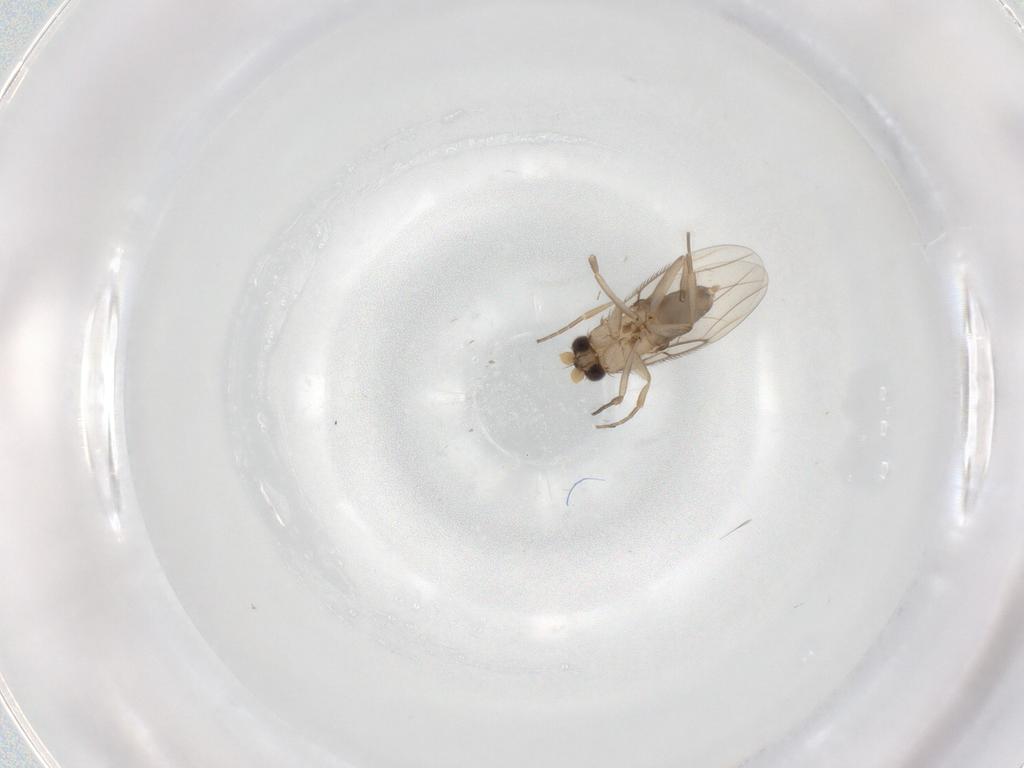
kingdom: Animalia
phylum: Arthropoda
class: Insecta
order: Diptera
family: Phoridae
